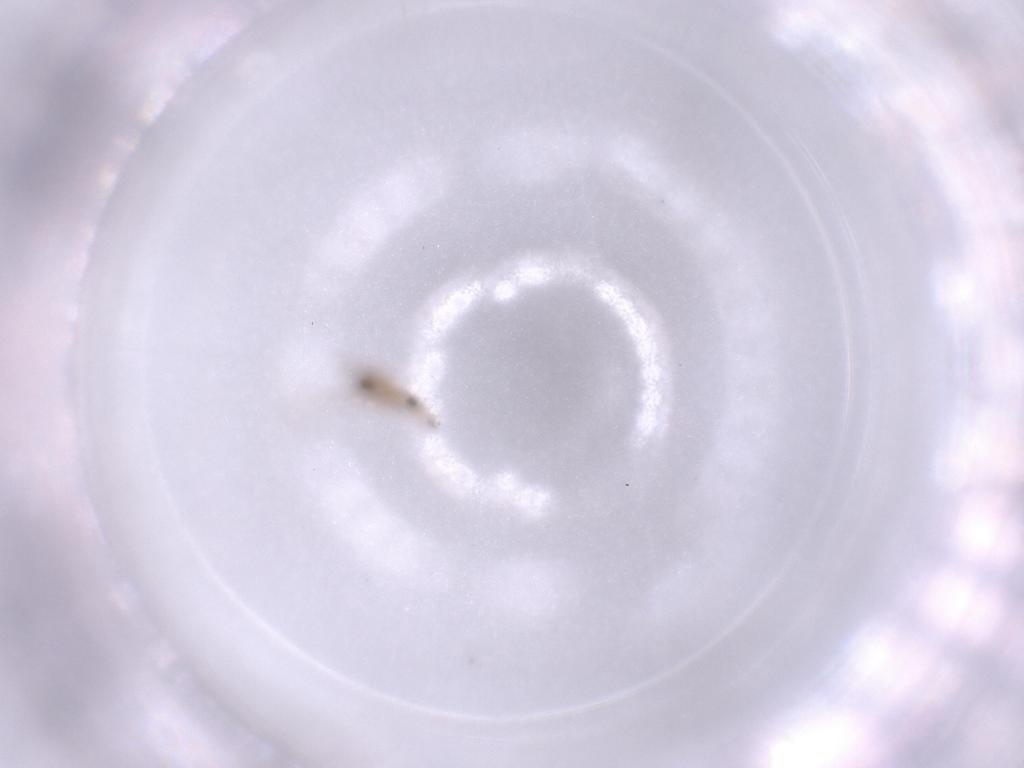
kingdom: Animalia
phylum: Arthropoda
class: Insecta
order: Diptera
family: Cecidomyiidae
